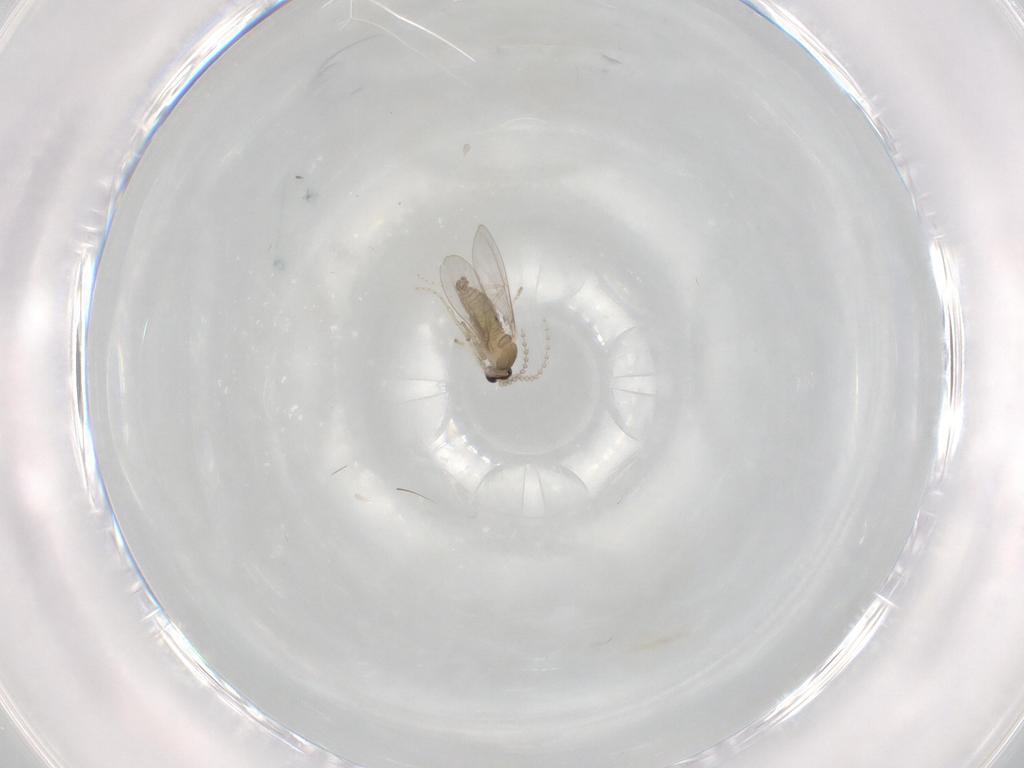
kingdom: Animalia
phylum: Arthropoda
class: Insecta
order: Diptera
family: Cecidomyiidae
